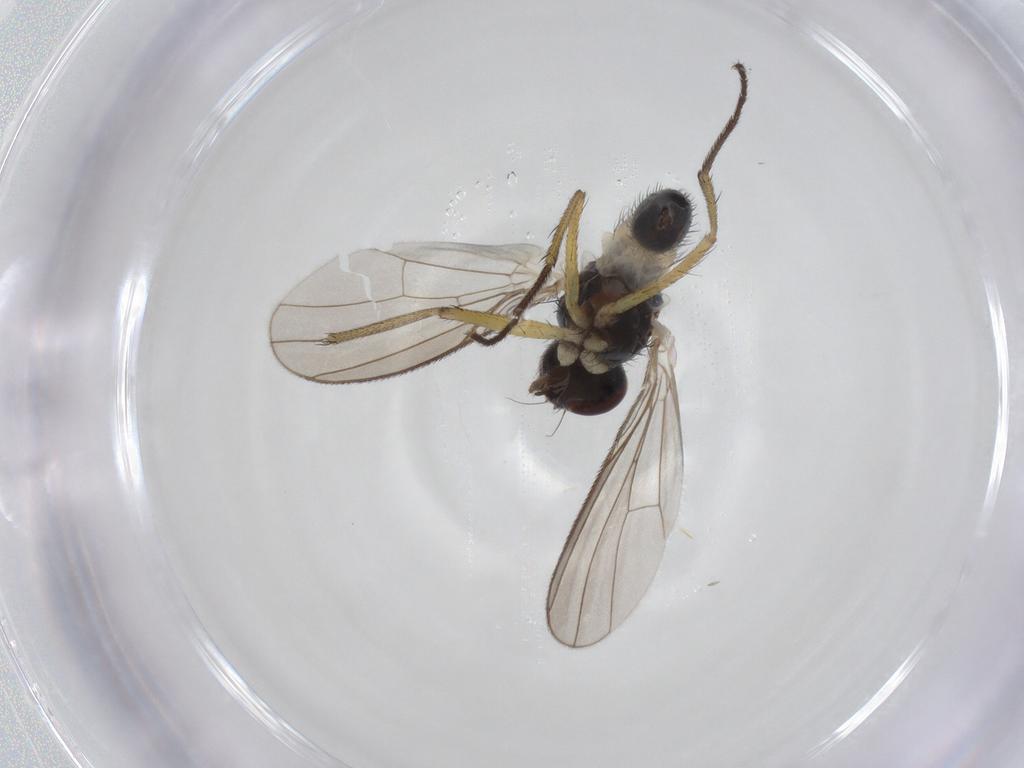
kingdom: Animalia
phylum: Arthropoda
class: Insecta
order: Diptera
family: Muscidae
